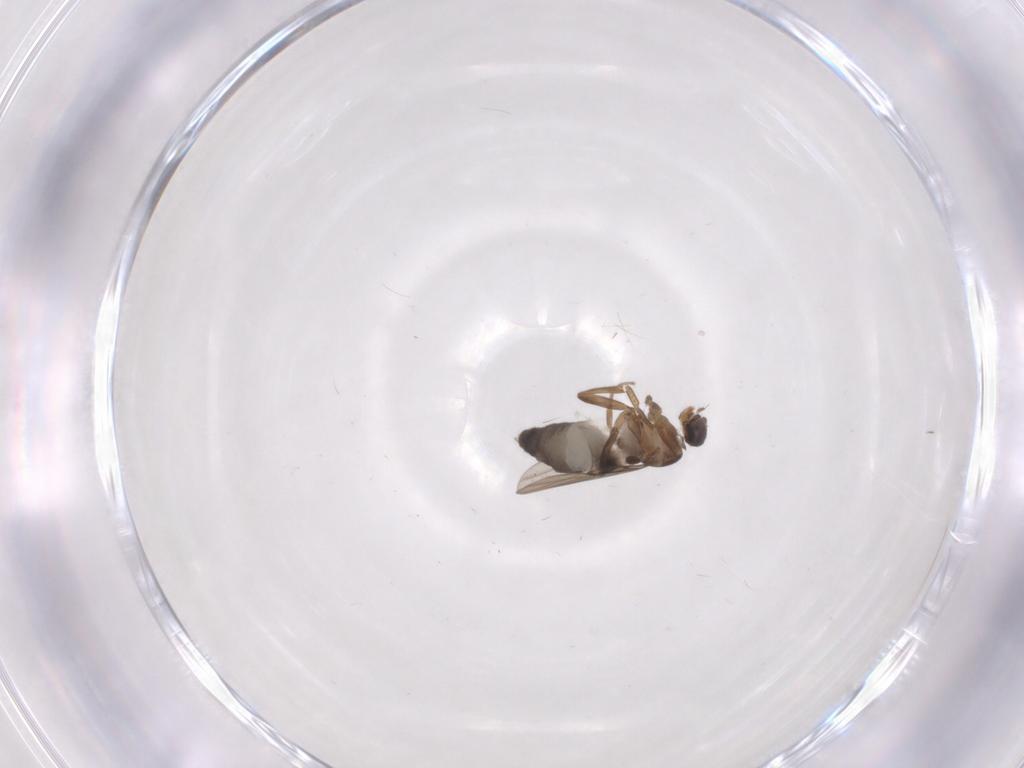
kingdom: Animalia
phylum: Arthropoda
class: Insecta
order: Diptera
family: Phoridae
